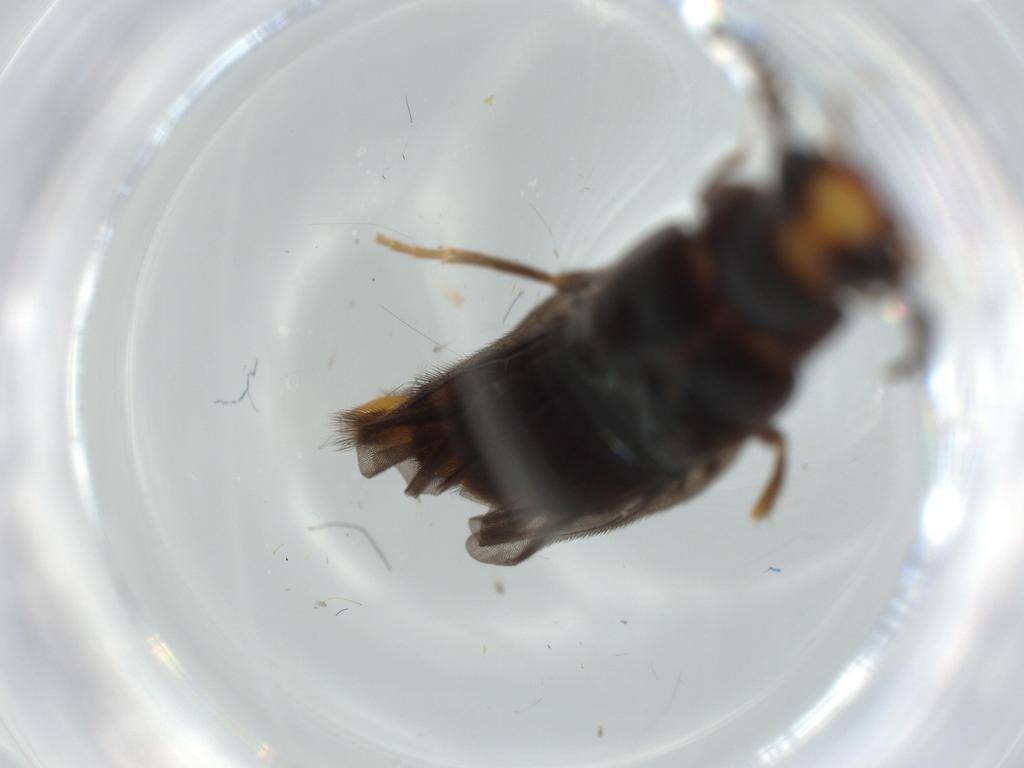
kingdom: Animalia
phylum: Arthropoda
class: Insecta
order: Coleoptera
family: Phengodidae
